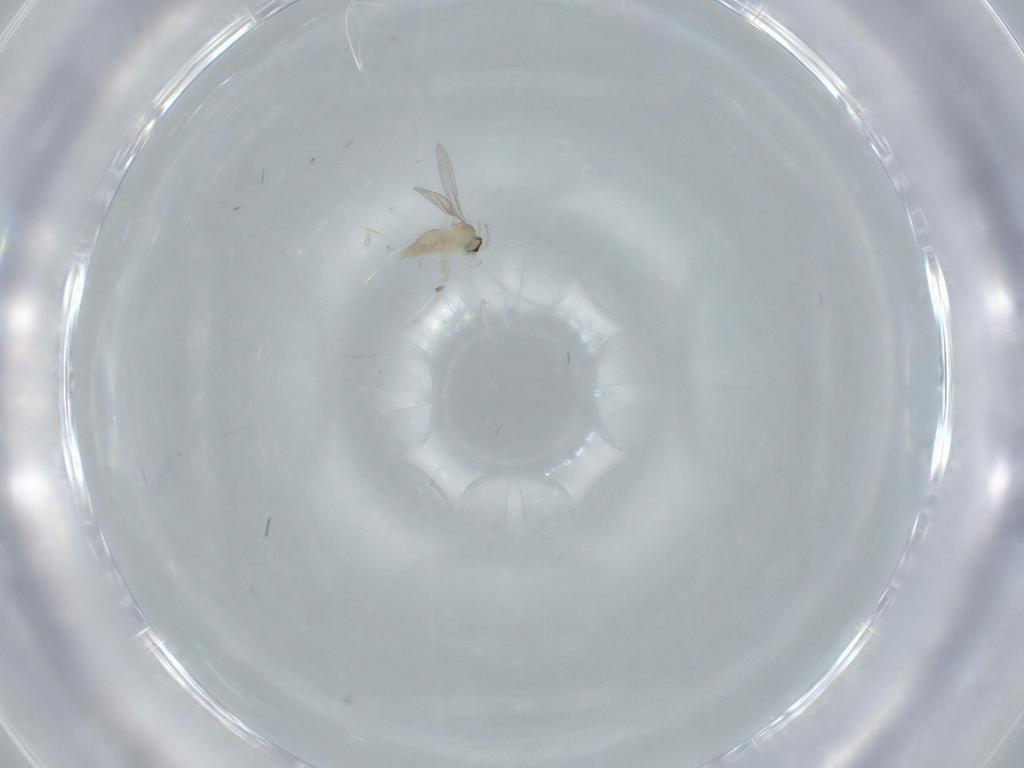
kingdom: Animalia
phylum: Arthropoda
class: Insecta
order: Diptera
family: Cecidomyiidae
